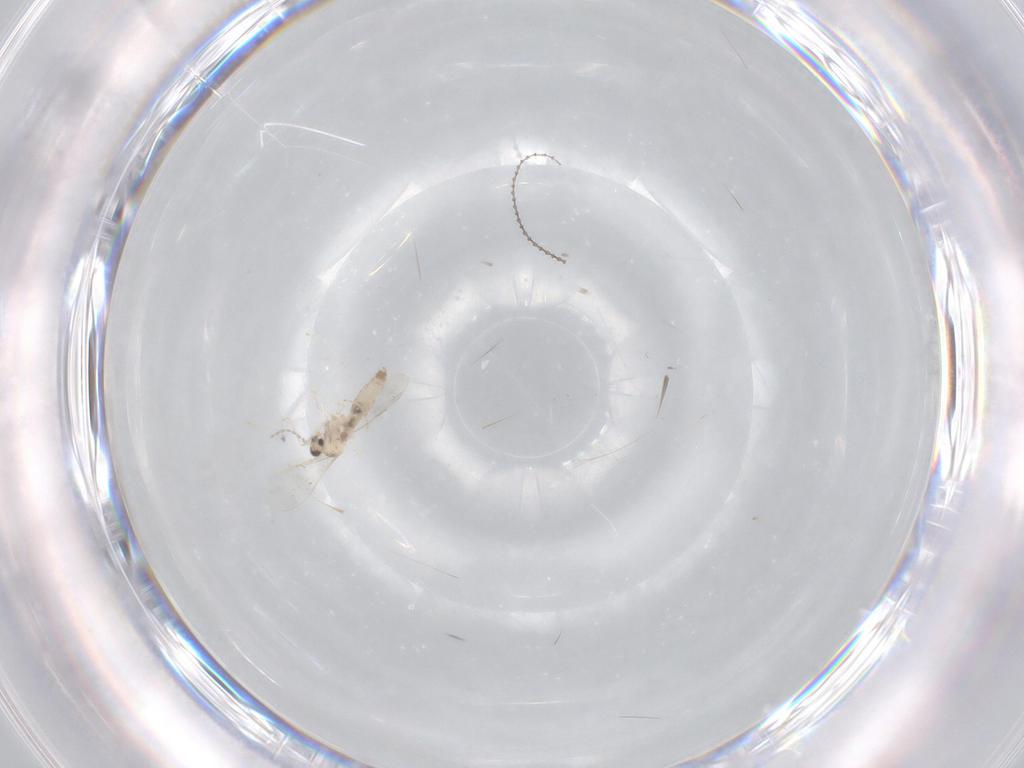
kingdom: Animalia
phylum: Arthropoda
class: Insecta
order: Diptera
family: Cecidomyiidae
